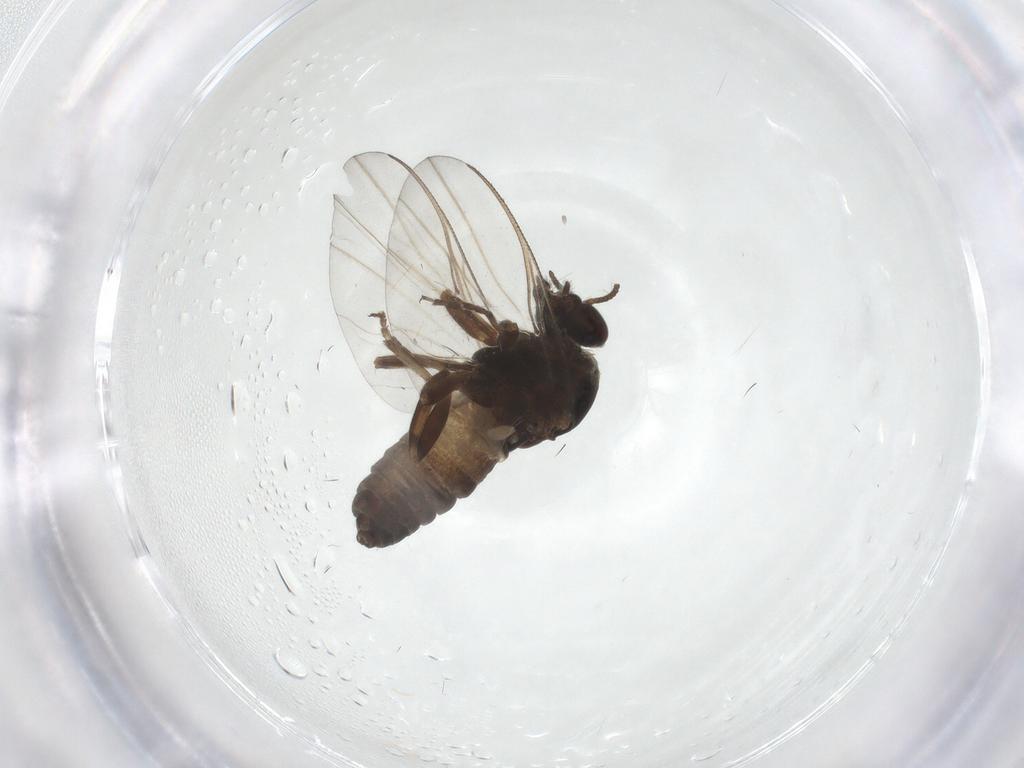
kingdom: Animalia
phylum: Arthropoda
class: Insecta
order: Diptera
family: Simuliidae
